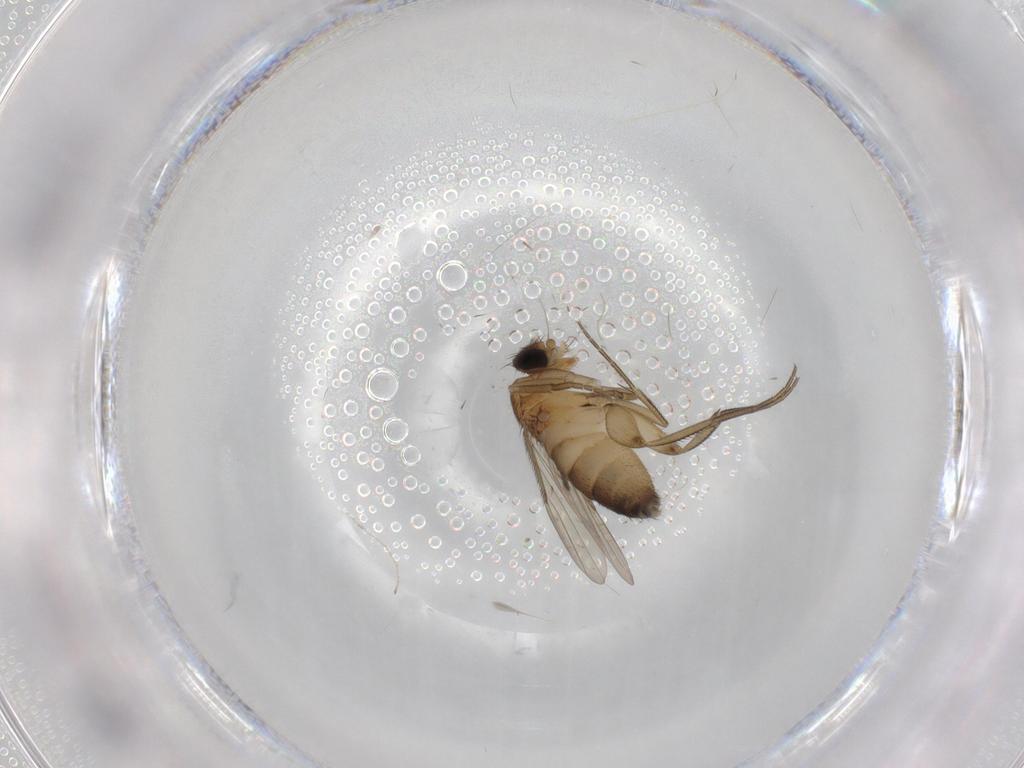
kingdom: Animalia
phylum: Arthropoda
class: Insecta
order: Diptera
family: Phoridae
